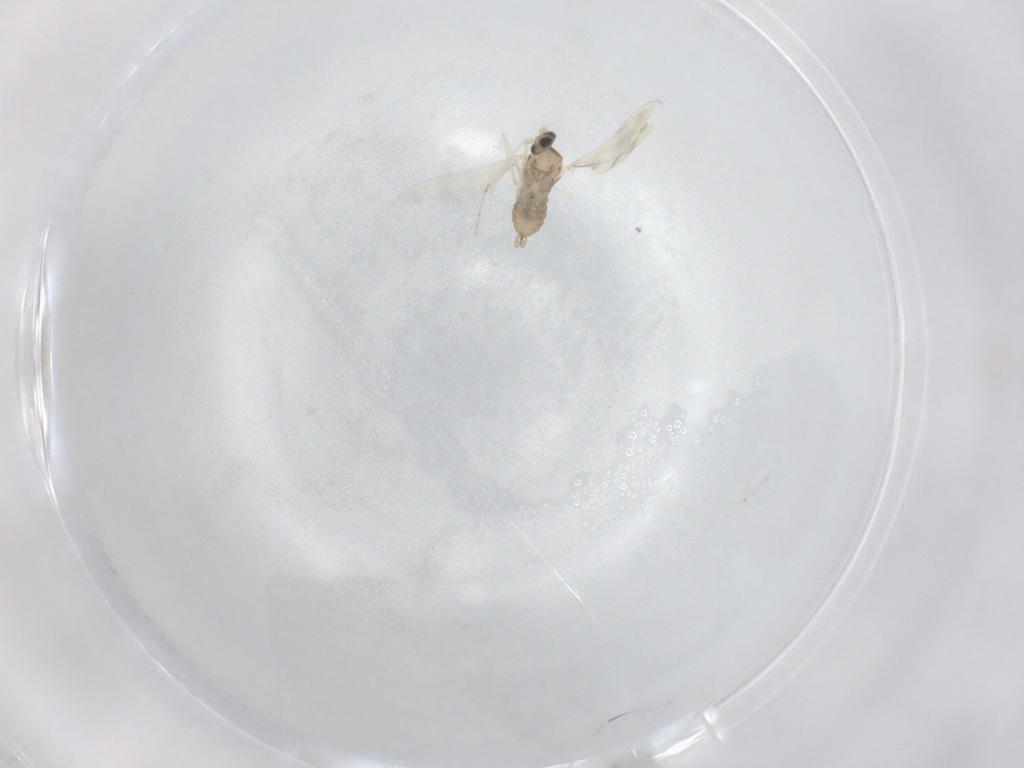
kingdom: Animalia
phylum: Arthropoda
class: Insecta
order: Diptera
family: Cecidomyiidae
